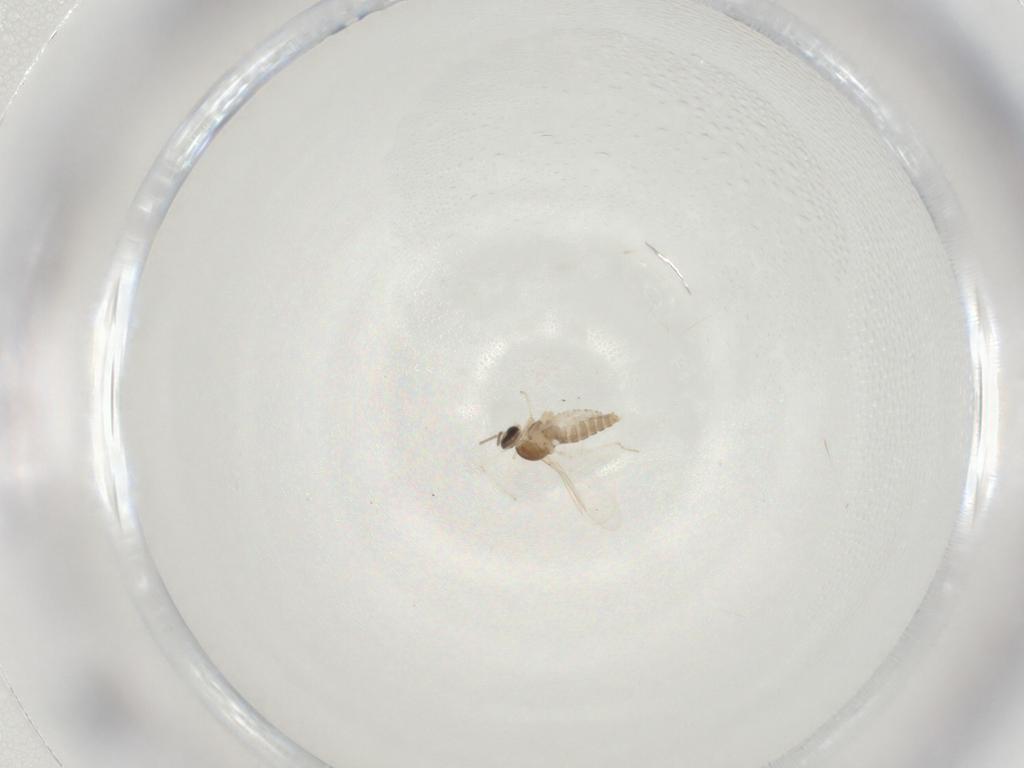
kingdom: Animalia
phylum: Arthropoda
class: Insecta
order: Diptera
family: Cecidomyiidae
